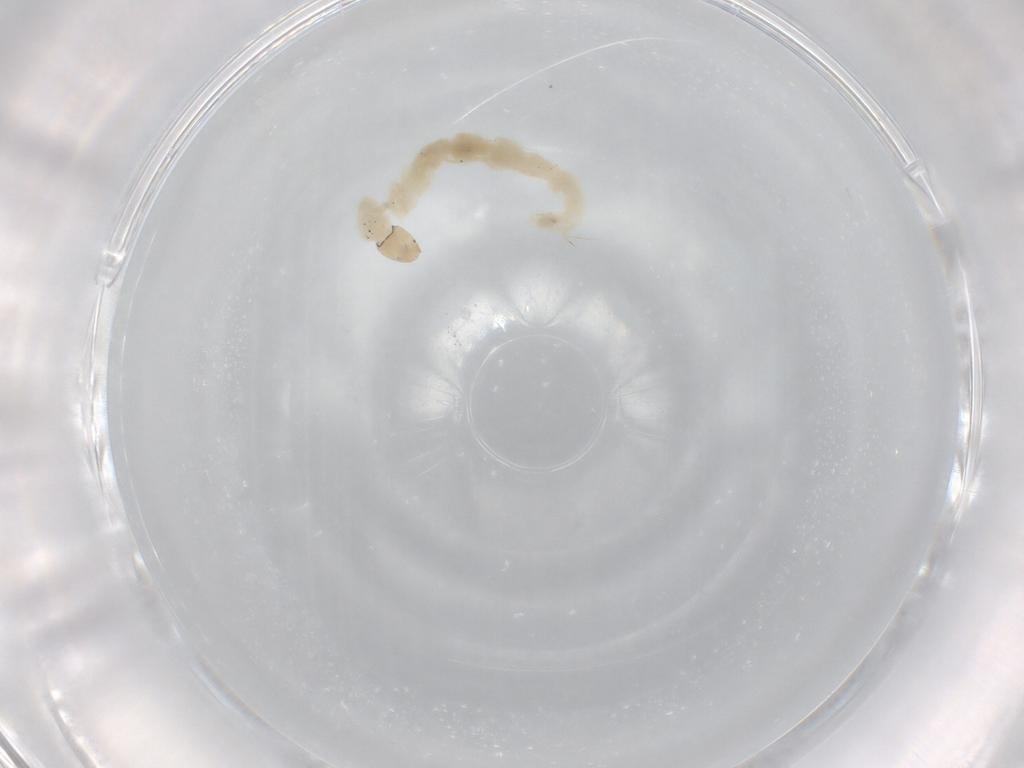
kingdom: Animalia
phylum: Arthropoda
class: Insecta
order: Diptera
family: Chironomidae
